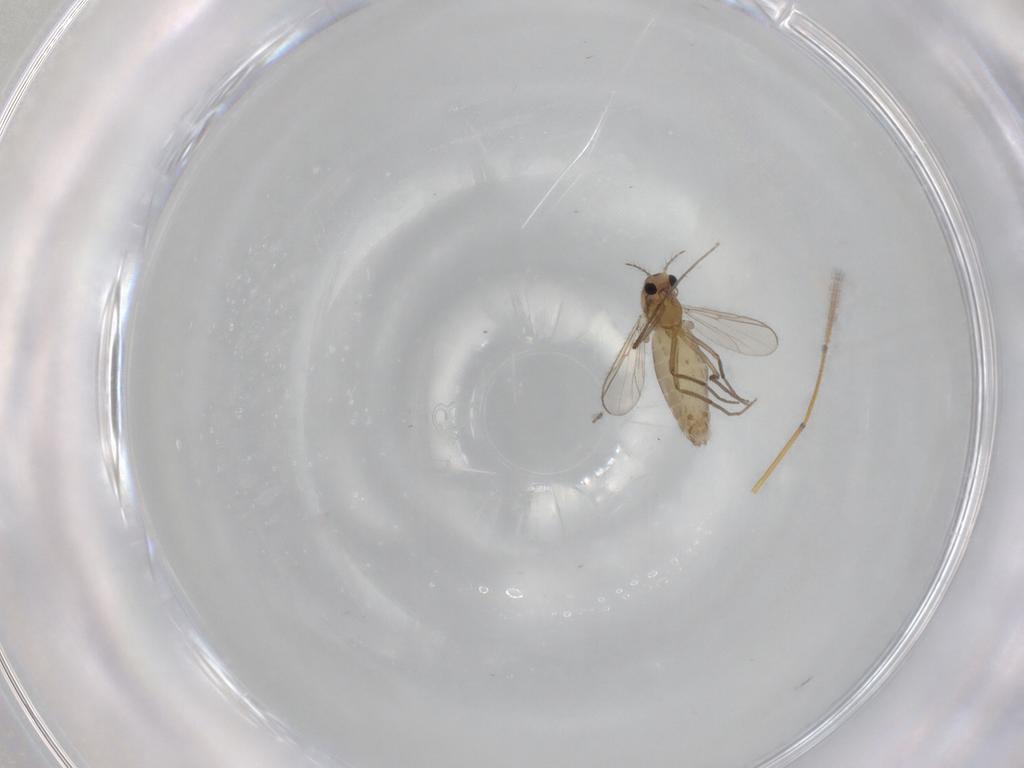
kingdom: Animalia
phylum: Arthropoda
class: Insecta
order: Diptera
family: Chironomidae
